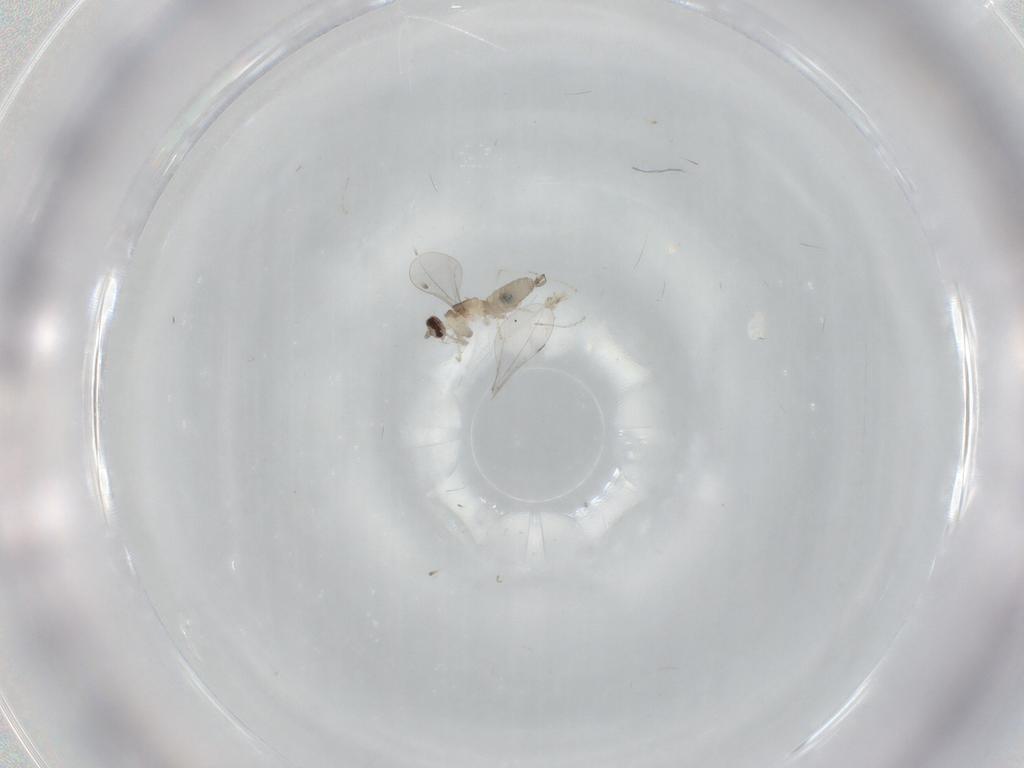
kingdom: Animalia
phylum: Arthropoda
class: Insecta
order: Diptera
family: Cecidomyiidae
